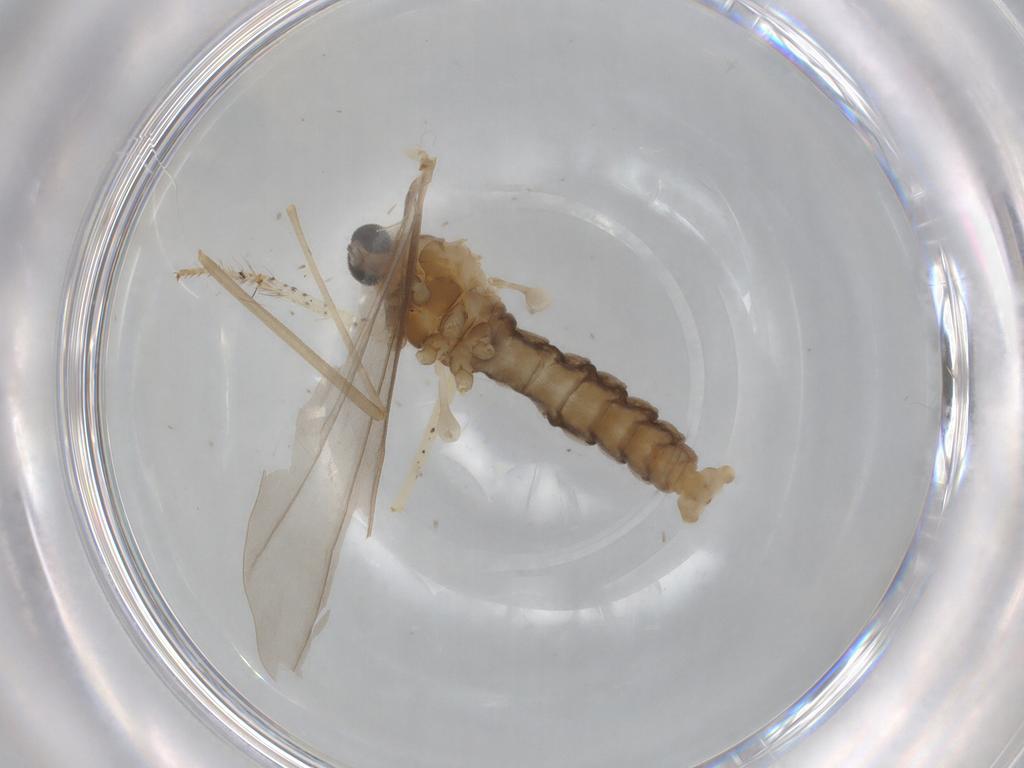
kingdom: Animalia
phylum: Arthropoda
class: Insecta
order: Diptera
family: Cecidomyiidae
